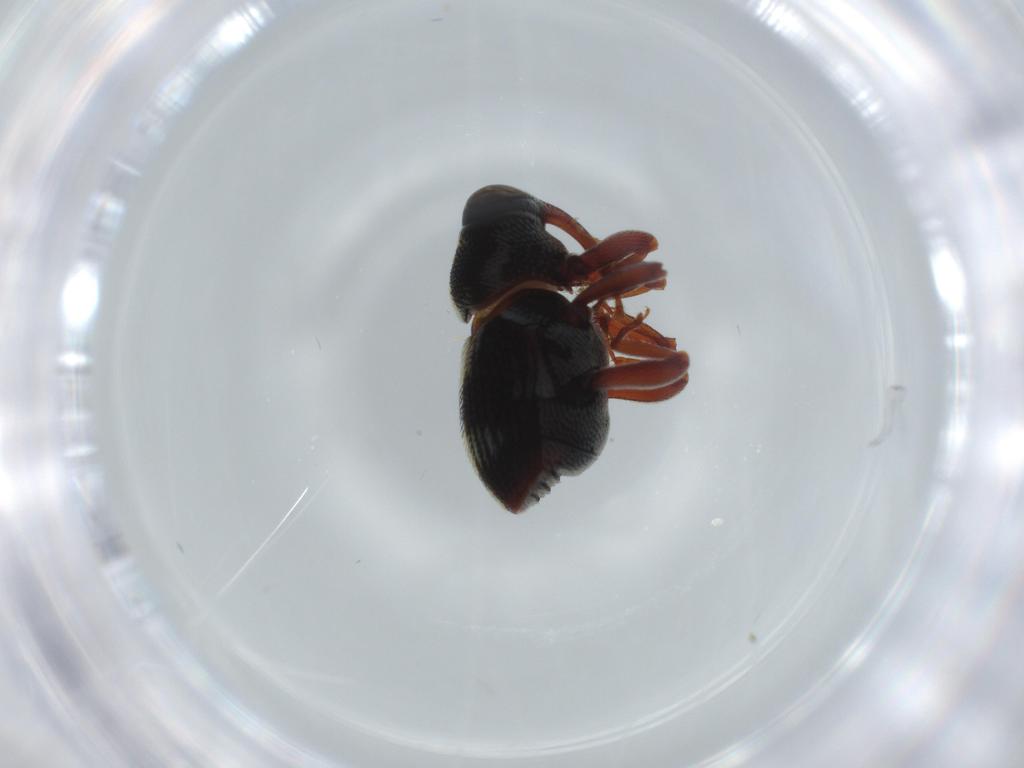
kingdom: Animalia
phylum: Arthropoda
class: Insecta
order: Coleoptera
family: Curculionidae
